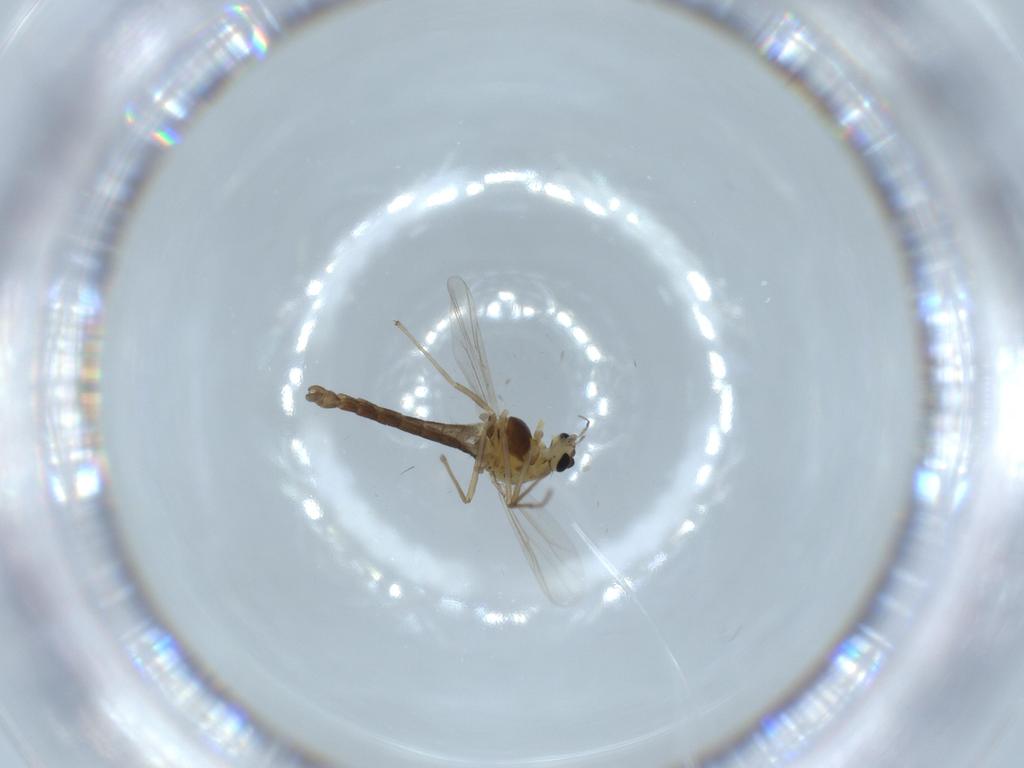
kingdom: Animalia
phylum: Arthropoda
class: Insecta
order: Diptera
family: Chironomidae
